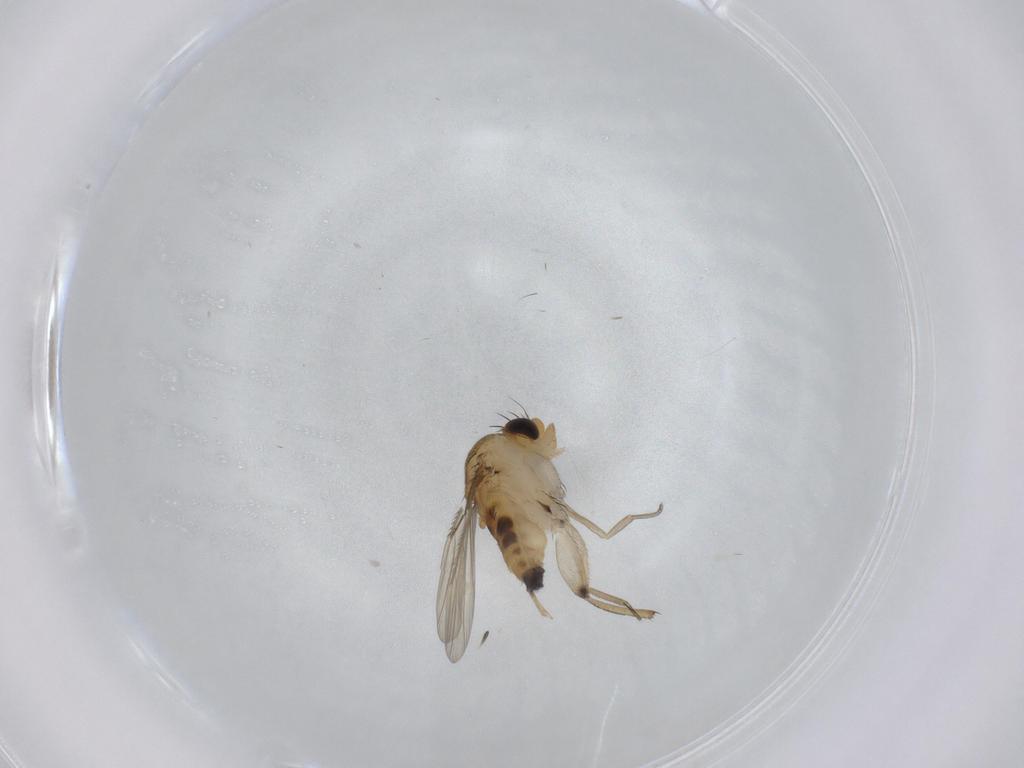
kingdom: Animalia
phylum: Arthropoda
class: Insecta
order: Diptera
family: Phoridae
